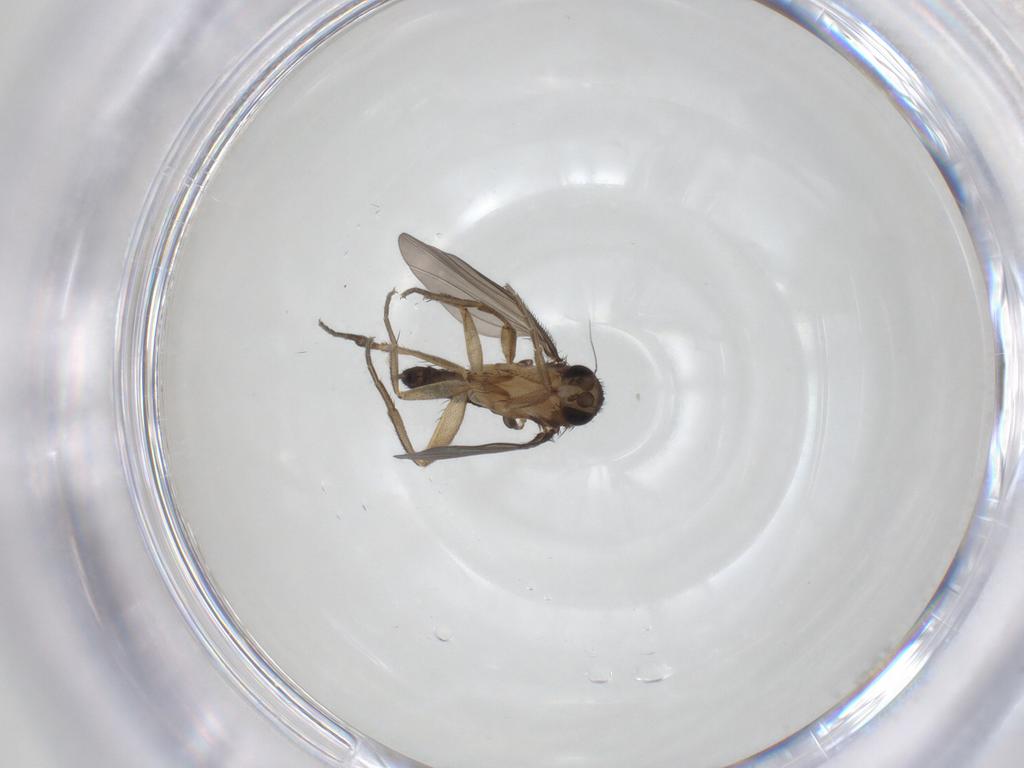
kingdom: Animalia
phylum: Arthropoda
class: Insecta
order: Diptera
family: Phoridae
